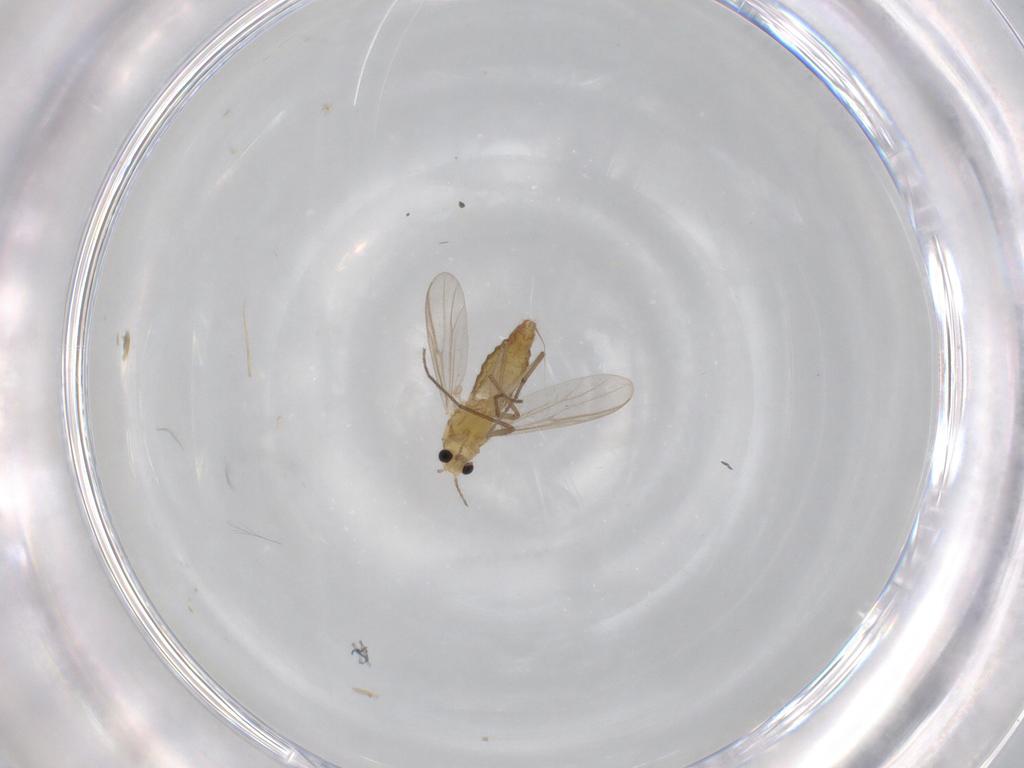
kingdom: Animalia
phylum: Arthropoda
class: Insecta
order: Diptera
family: Chironomidae
